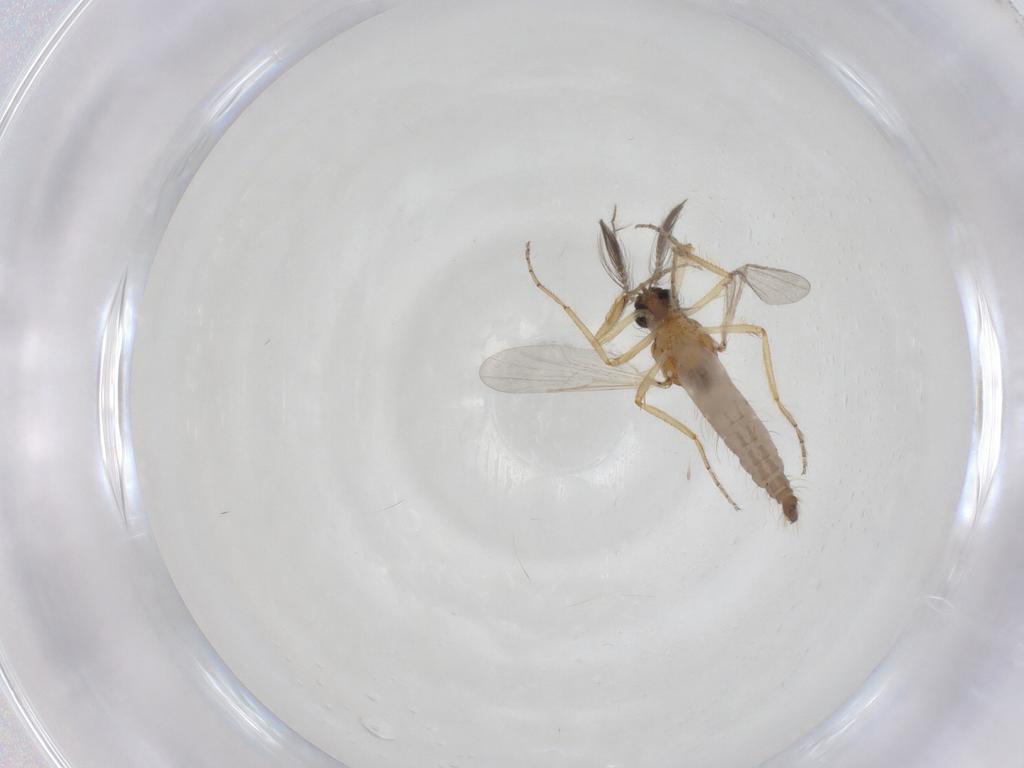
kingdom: Animalia
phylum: Arthropoda
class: Insecta
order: Diptera
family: Ceratopogonidae
